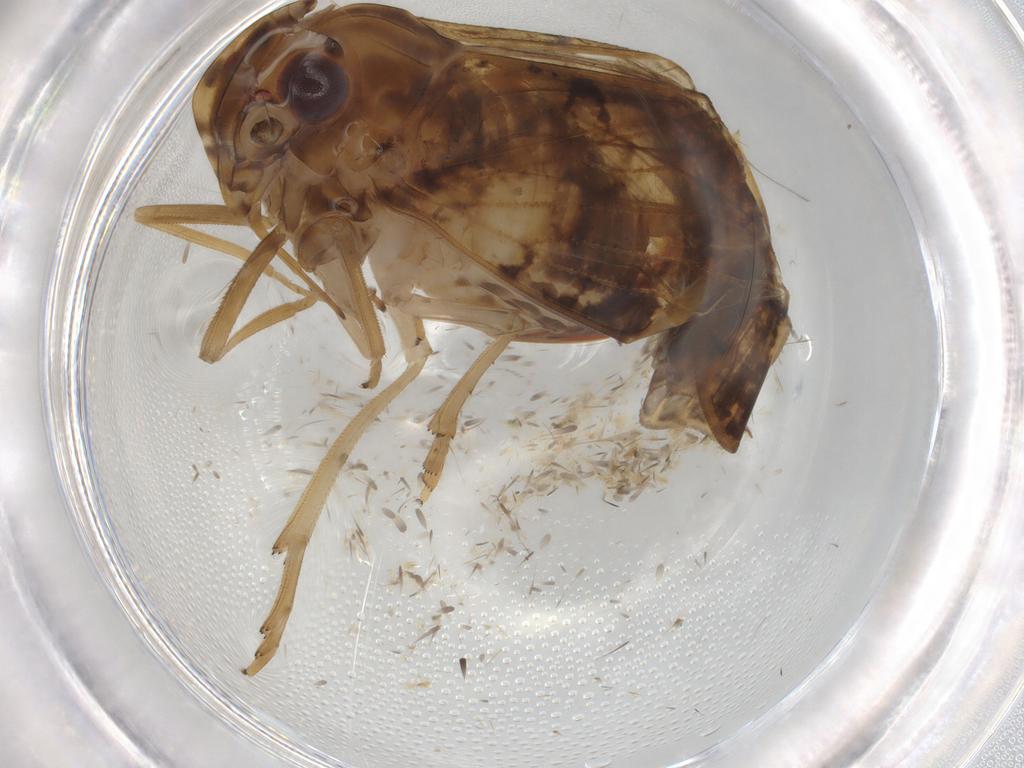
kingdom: Animalia
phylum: Arthropoda
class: Insecta
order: Hemiptera
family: Cixiidae
